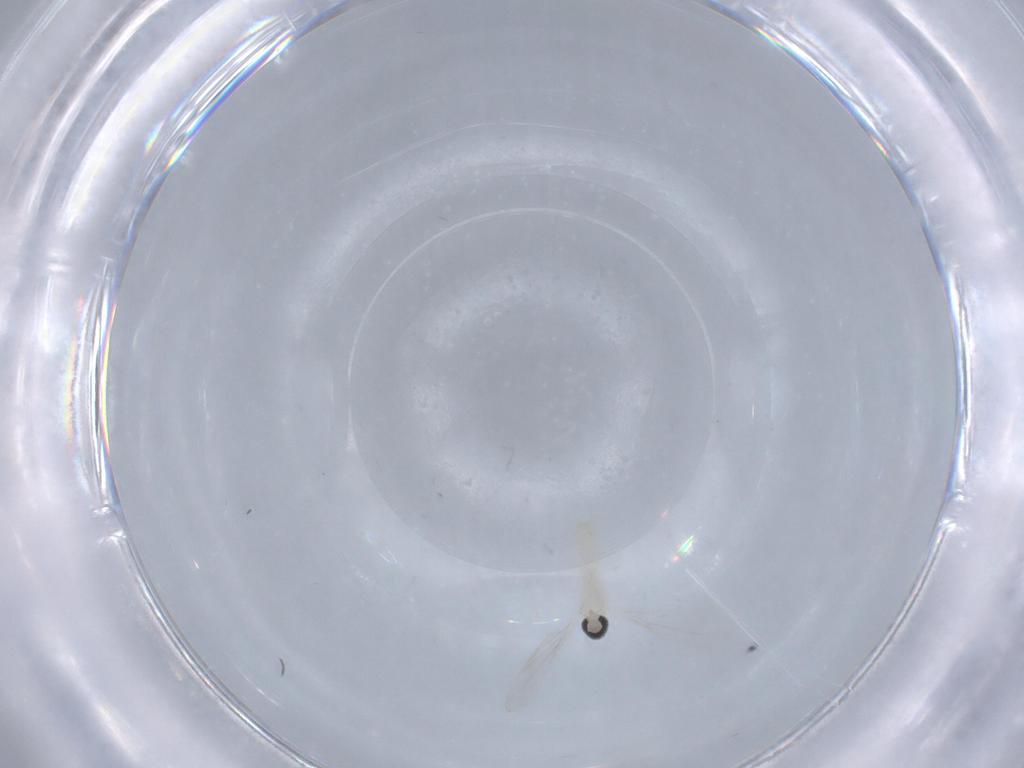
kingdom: Animalia
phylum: Arthropoda
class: Insecta
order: Diptera
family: Cecidomyiidae
